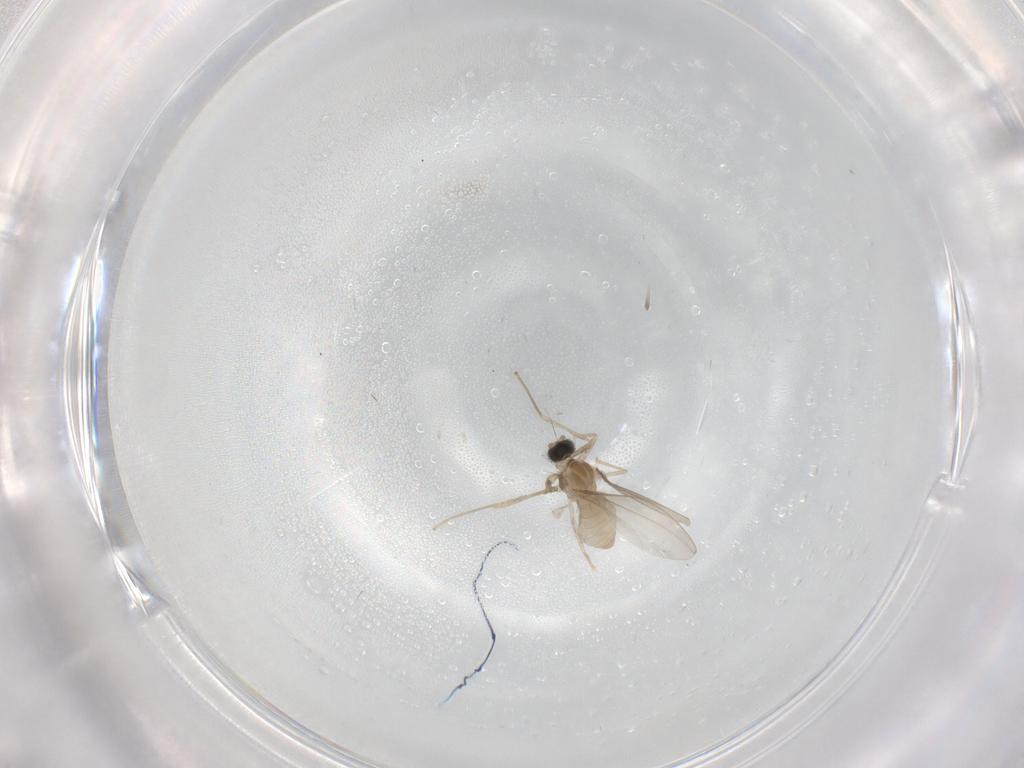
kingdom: Animalia
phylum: Arthropoda
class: Insecta
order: Diptera
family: Cecidomyiidae
